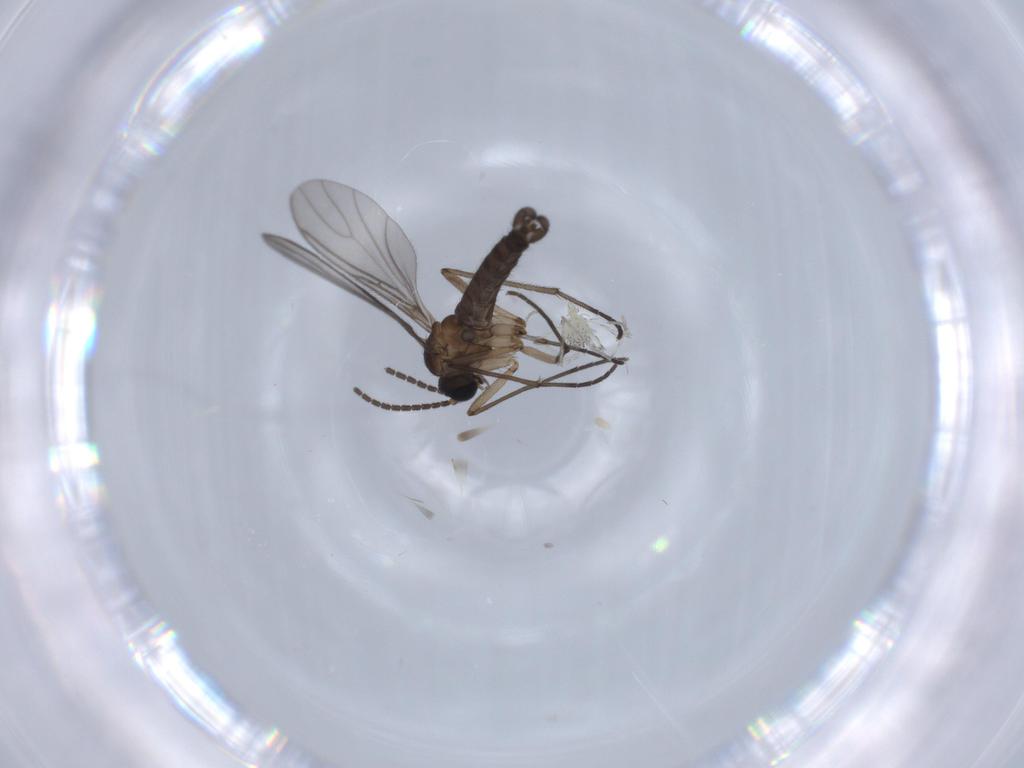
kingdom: Animalia
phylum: Arthropoda
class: Insecta
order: Diptera
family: Sciaridae
